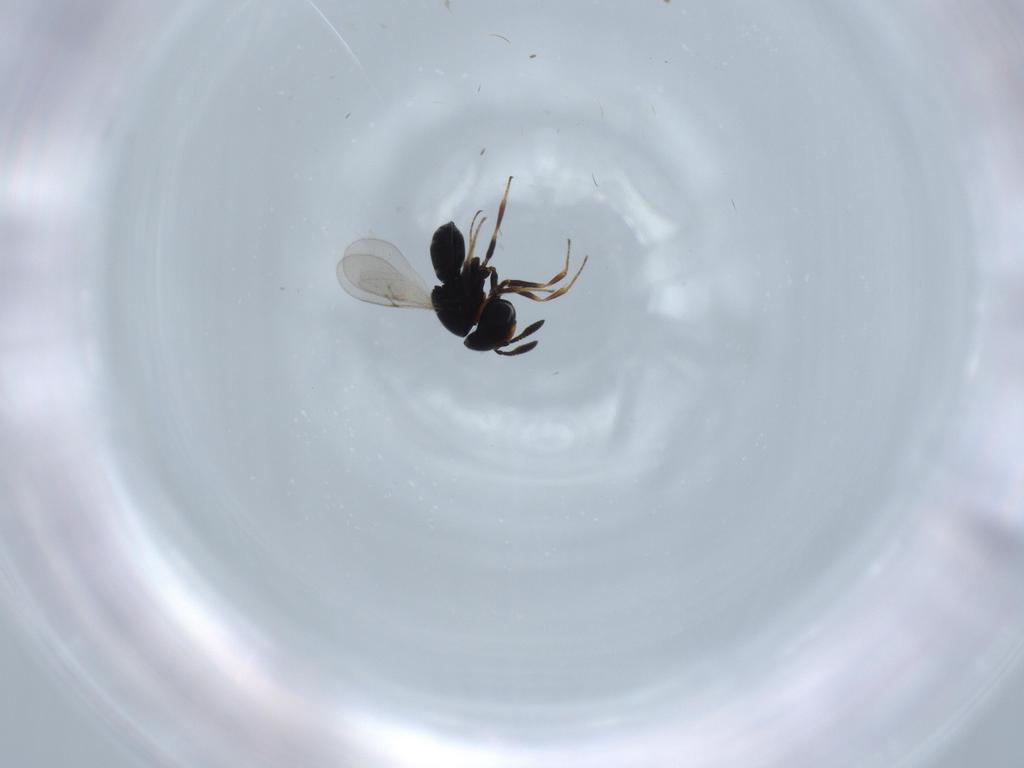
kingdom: Animalia
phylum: Arthropoda
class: Insecta
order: Hymenoptera
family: Scelionidae
